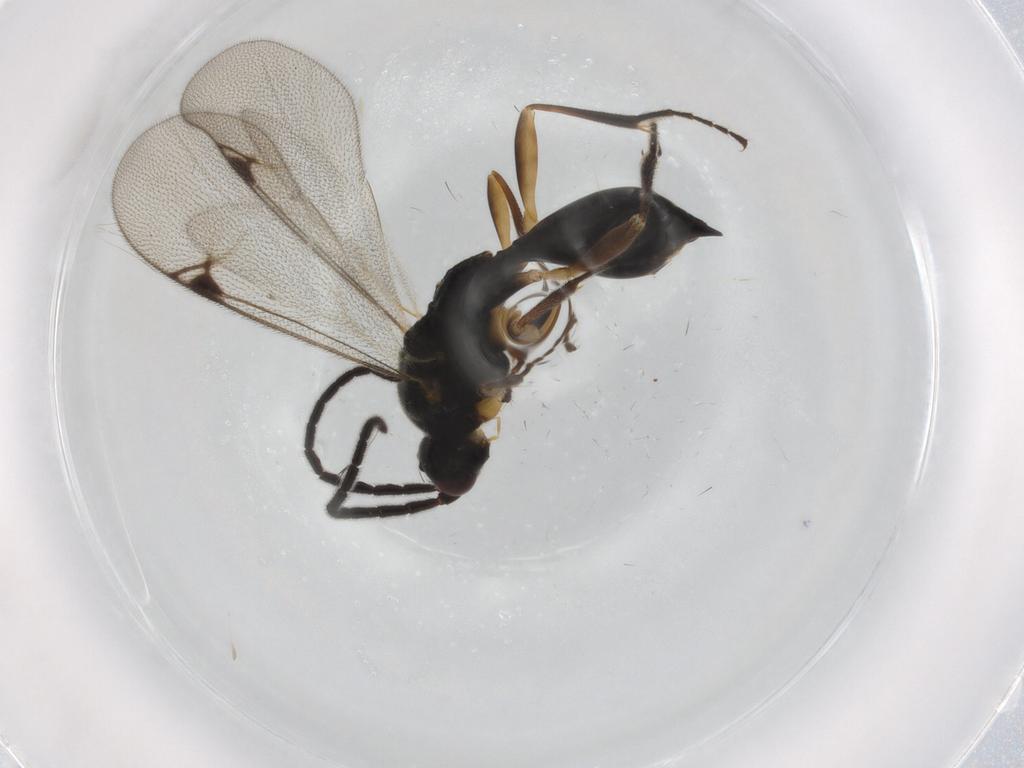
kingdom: Animalia
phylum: Arthropoda
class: Insecta
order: Hymenoptera
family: Proctotrupidae
